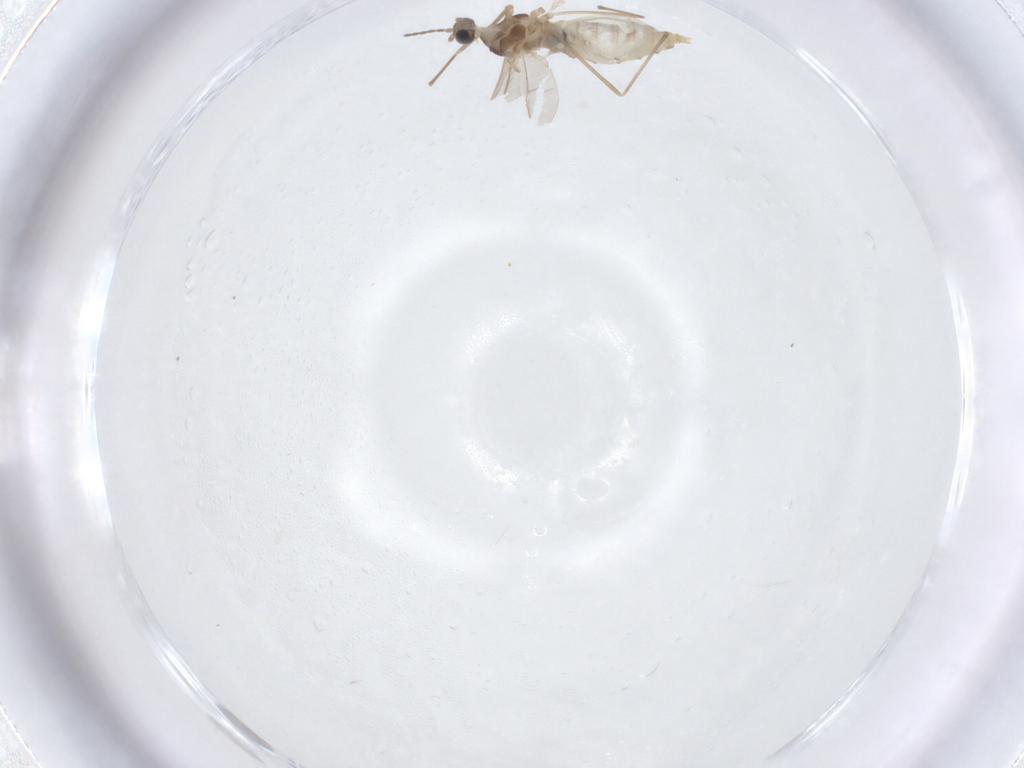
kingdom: Animalia
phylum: Arthropoda
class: Insecta
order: Diptera
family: Cecidomyiidae
